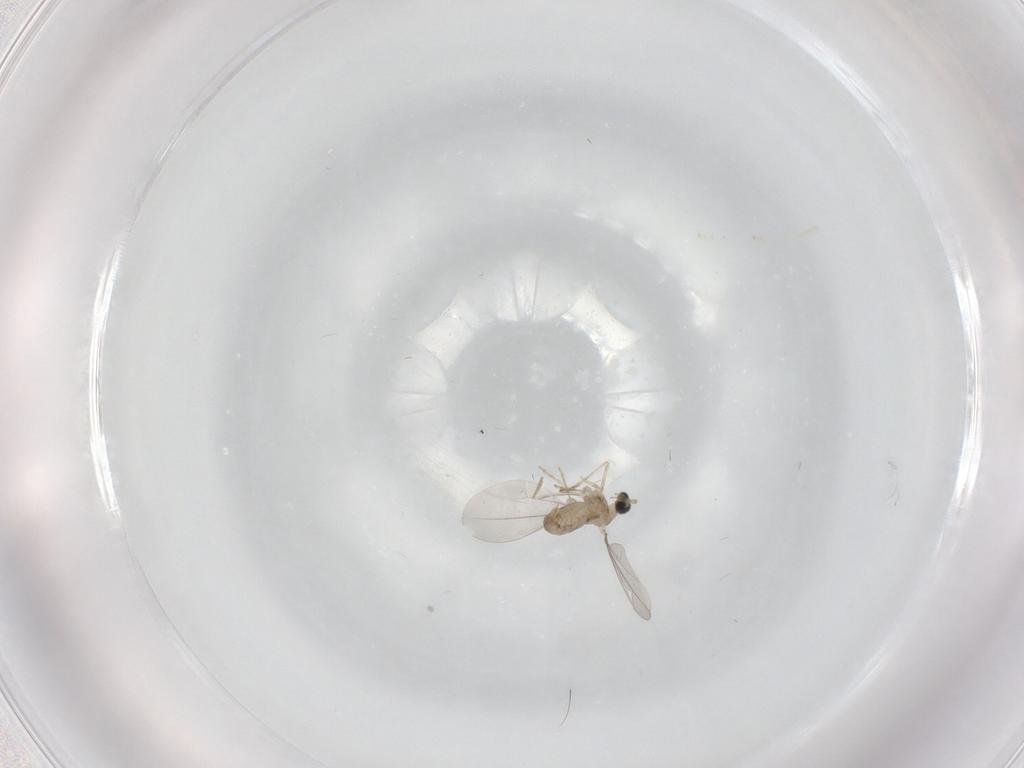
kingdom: Animalia
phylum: Arthropoda
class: Insecta
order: Diptera
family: Cecidomyiidae
